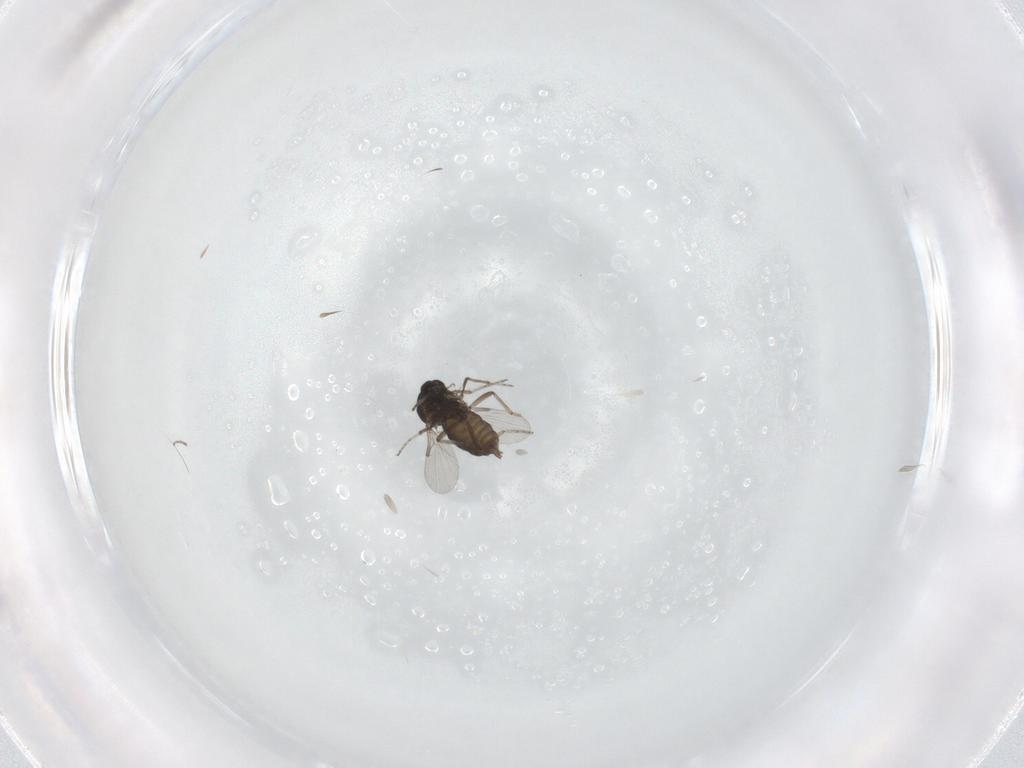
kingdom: Animalia
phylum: Arthropoda
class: Insecta
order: Diptera
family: Ceratopogonidae
